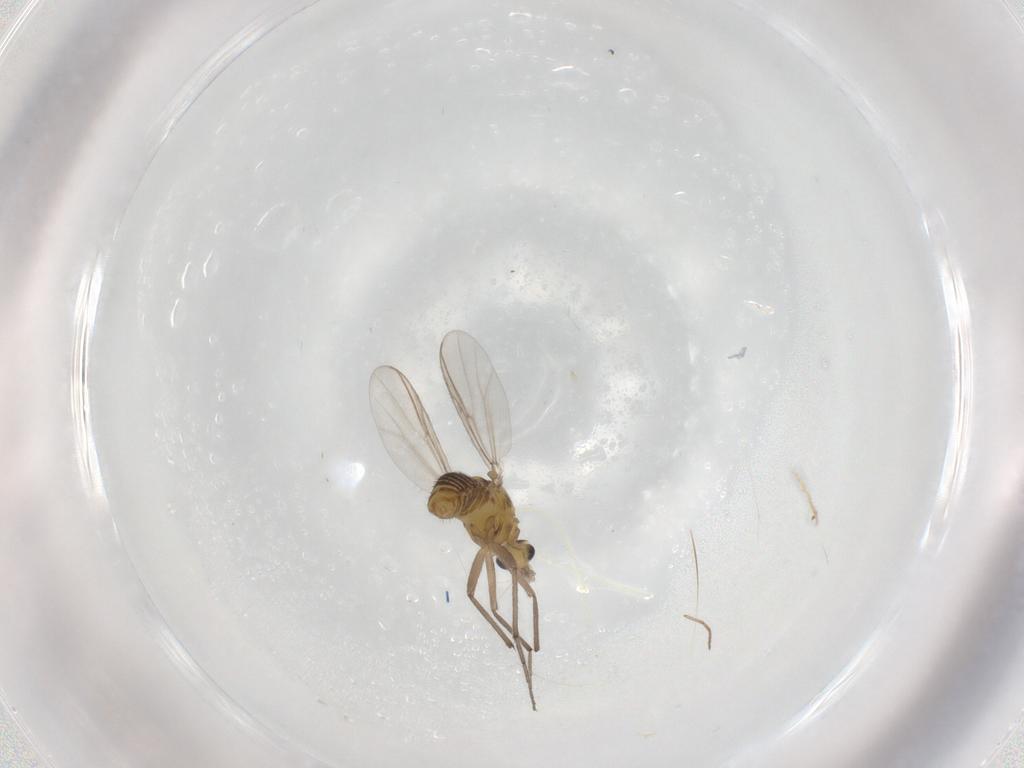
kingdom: Animalia
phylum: Arthropoda
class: Insecta
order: Diptera
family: Chironomidae
